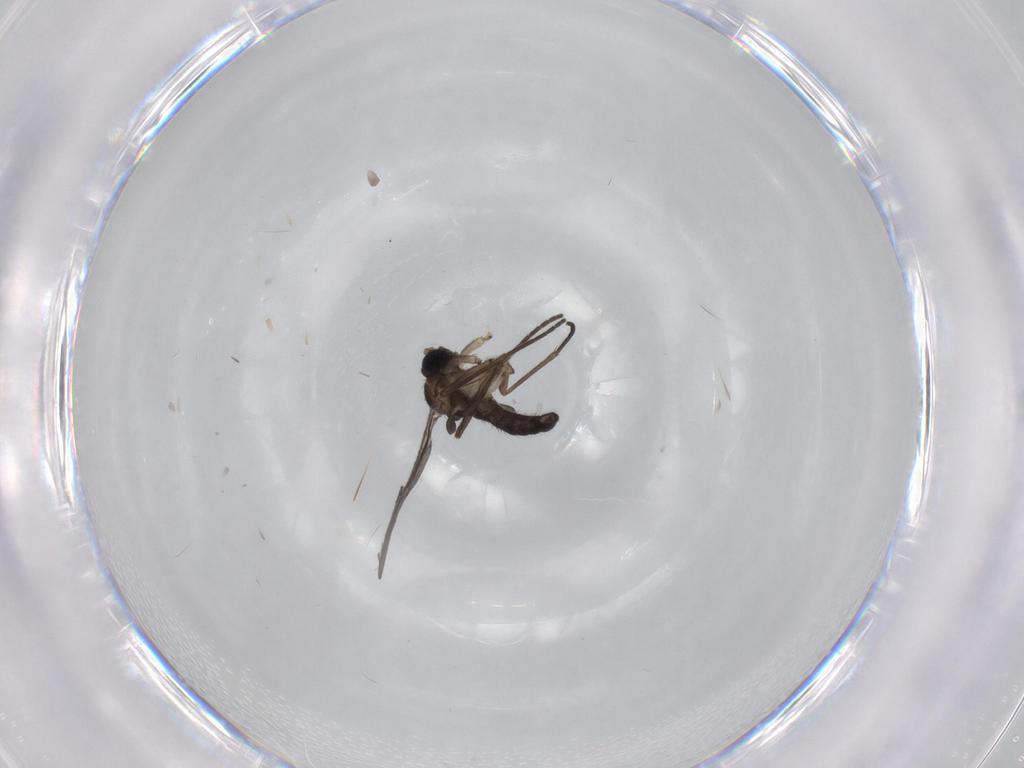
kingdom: Animalia
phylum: Arthropoda
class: Insecta
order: Diptera
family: Sciaridae
